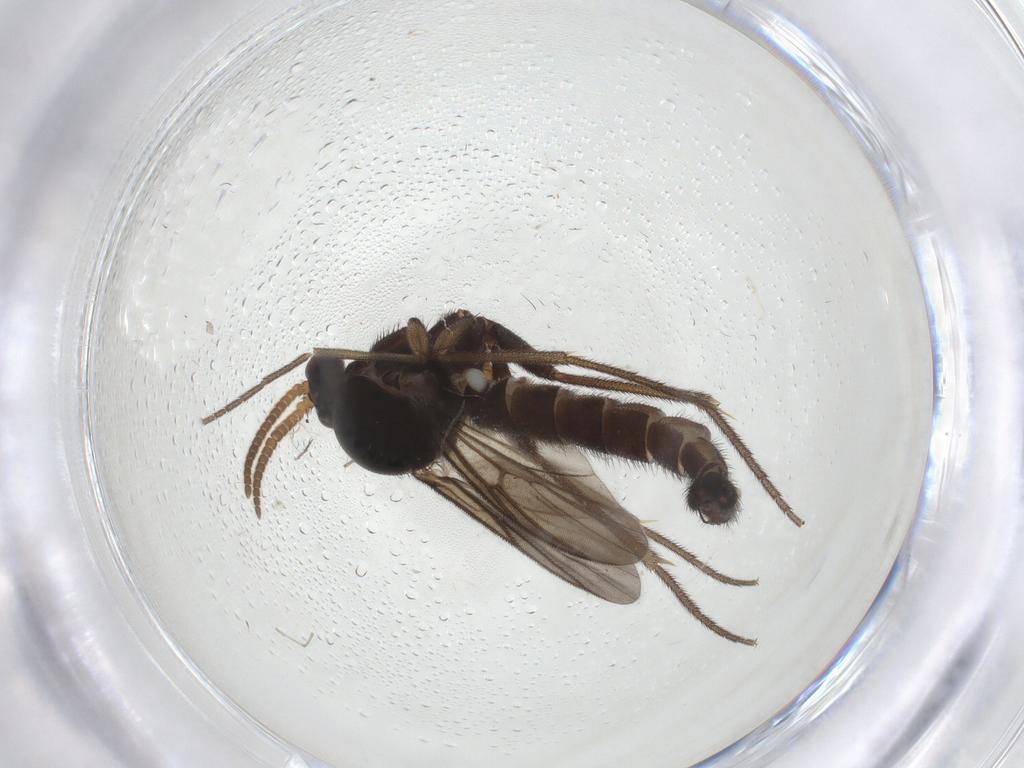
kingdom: Animalia
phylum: Arthropoda
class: Insecta
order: Diptera
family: Mycetophilidae
